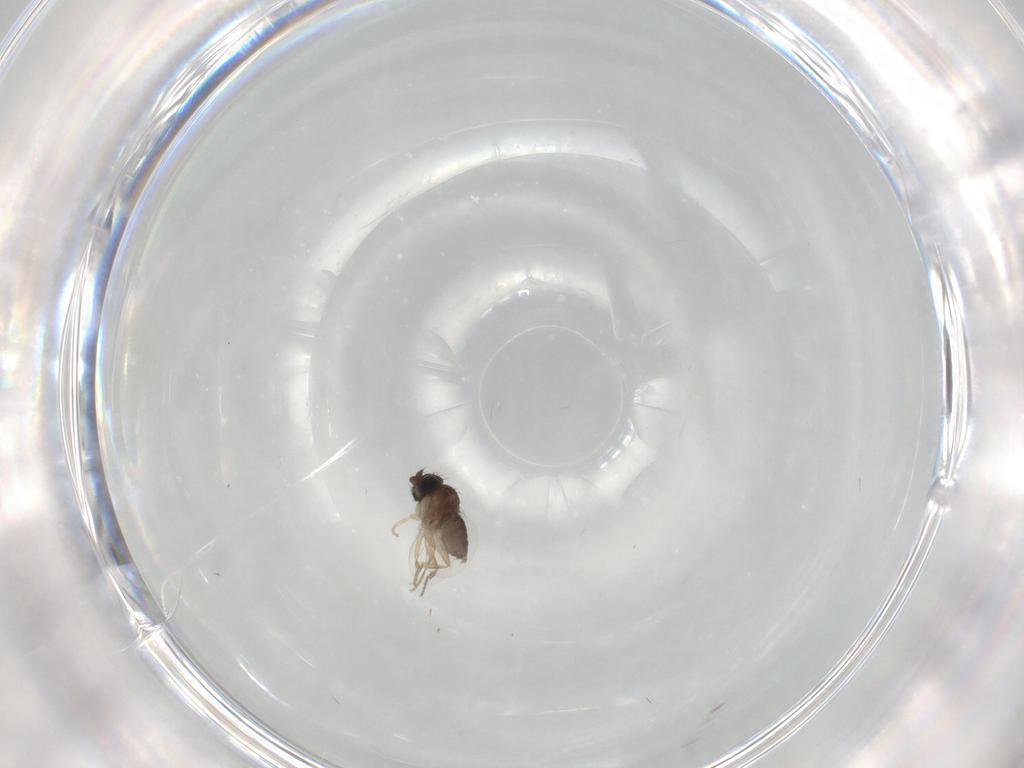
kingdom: Animalia
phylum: Arthropoda
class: Insecta
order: Diptera
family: Phoridae
